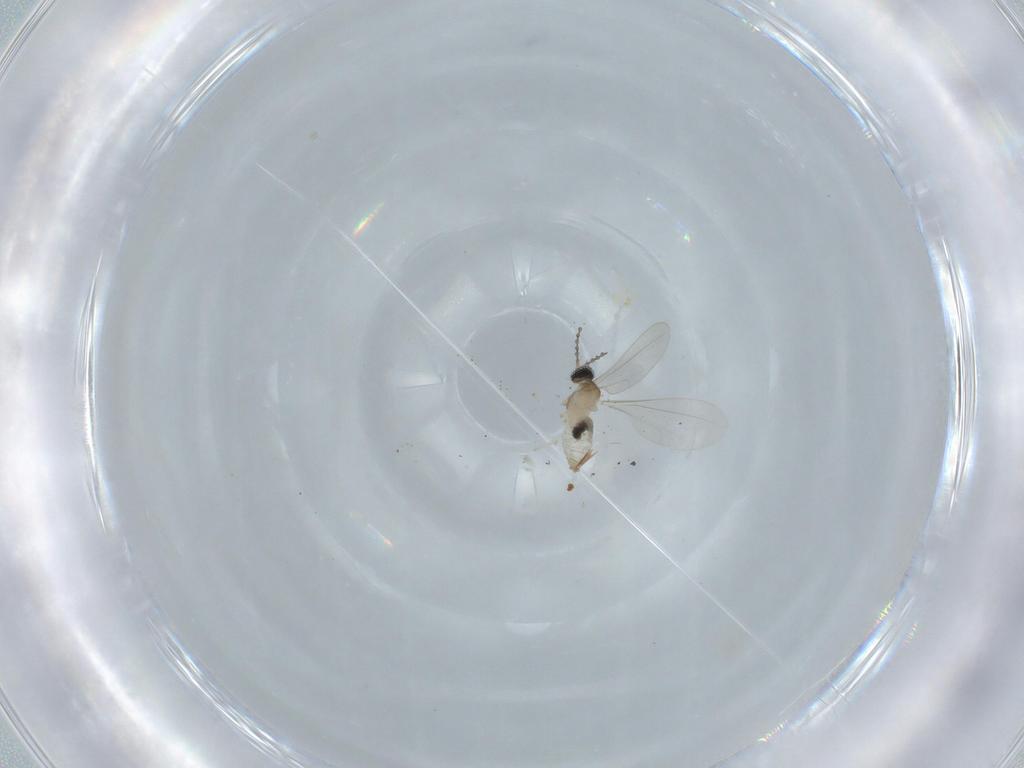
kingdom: Animalia
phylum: Arthropoda
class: Insecta
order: Diptera
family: Cecidomyiidae
